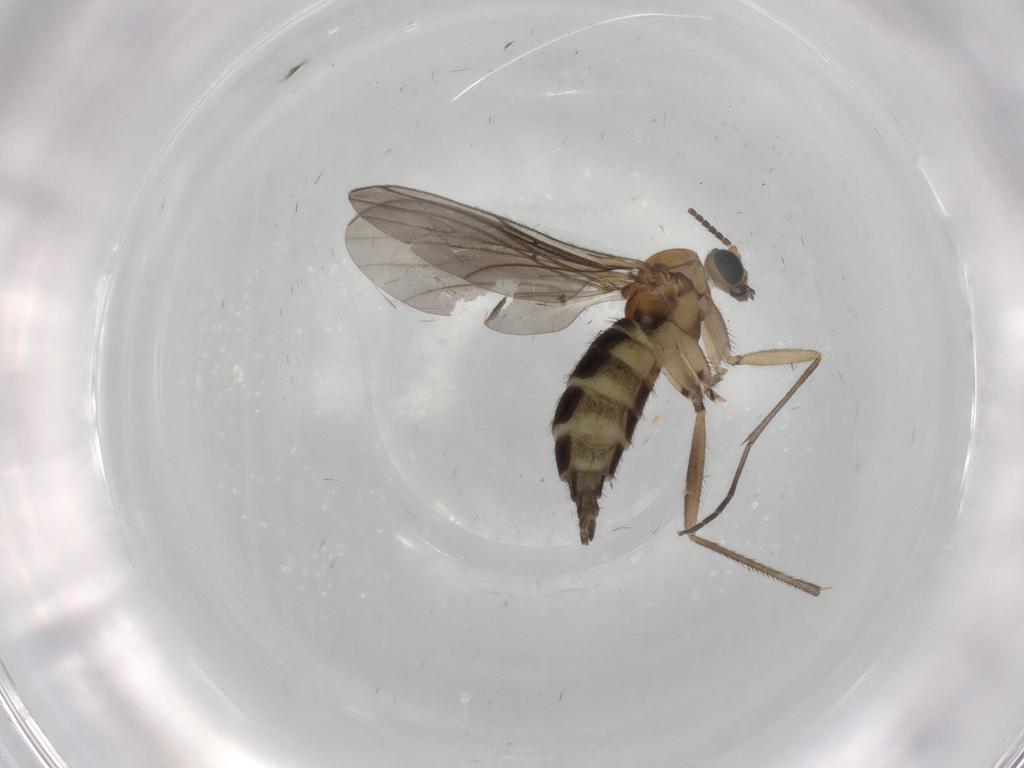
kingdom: Animalia
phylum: Arthropoda
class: Insecta
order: Diptera
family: Sciaridae
